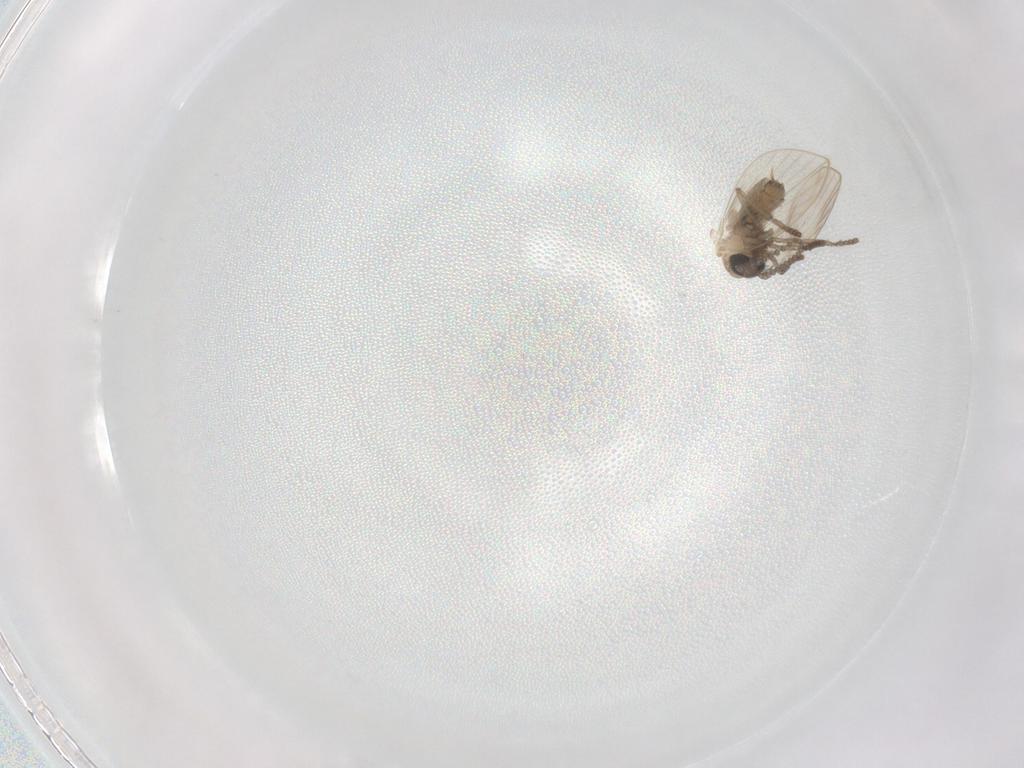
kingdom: Animalia
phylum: Arthropoda
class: Insecta
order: Diptera
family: Psychodidae
